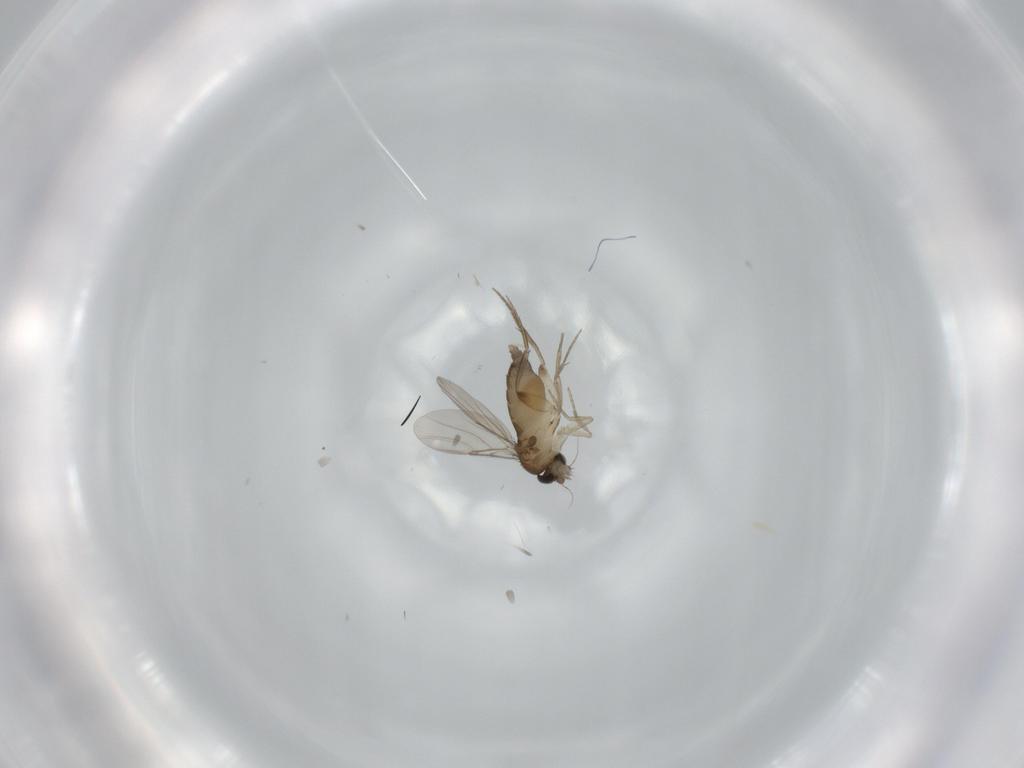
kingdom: Animalia
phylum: Arthropoda
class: Insecta
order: Diptera
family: Phoridae
